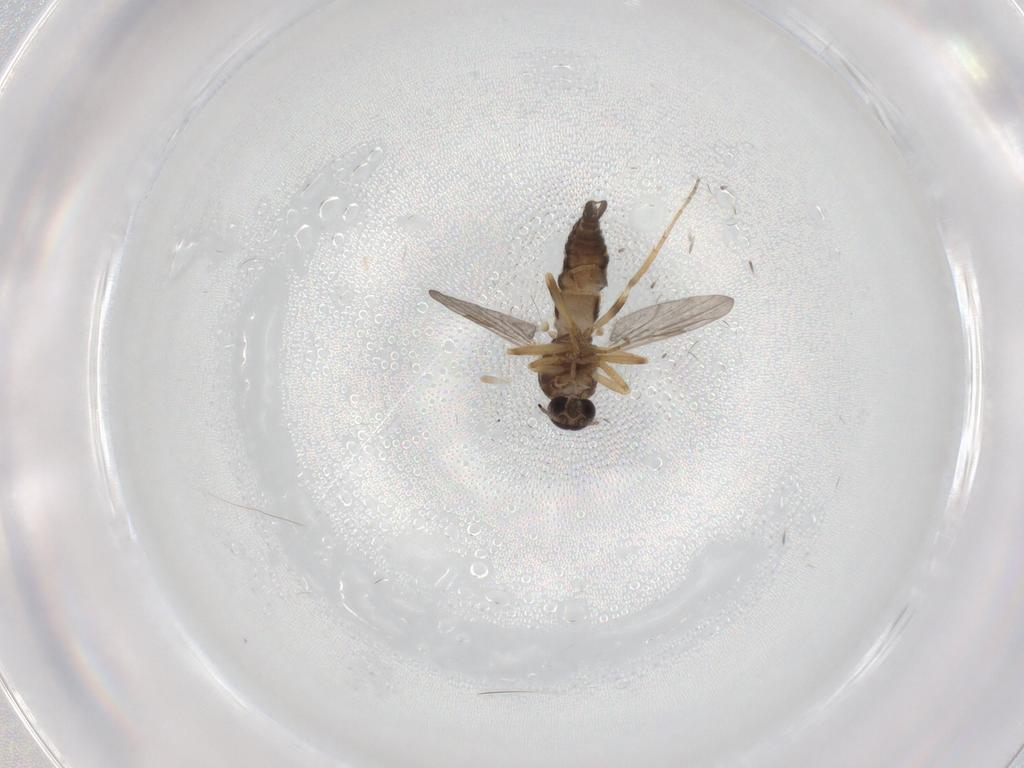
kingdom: Animalia
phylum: Arthropoda
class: Insecta
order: Diptera
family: Ceratopogonidae
